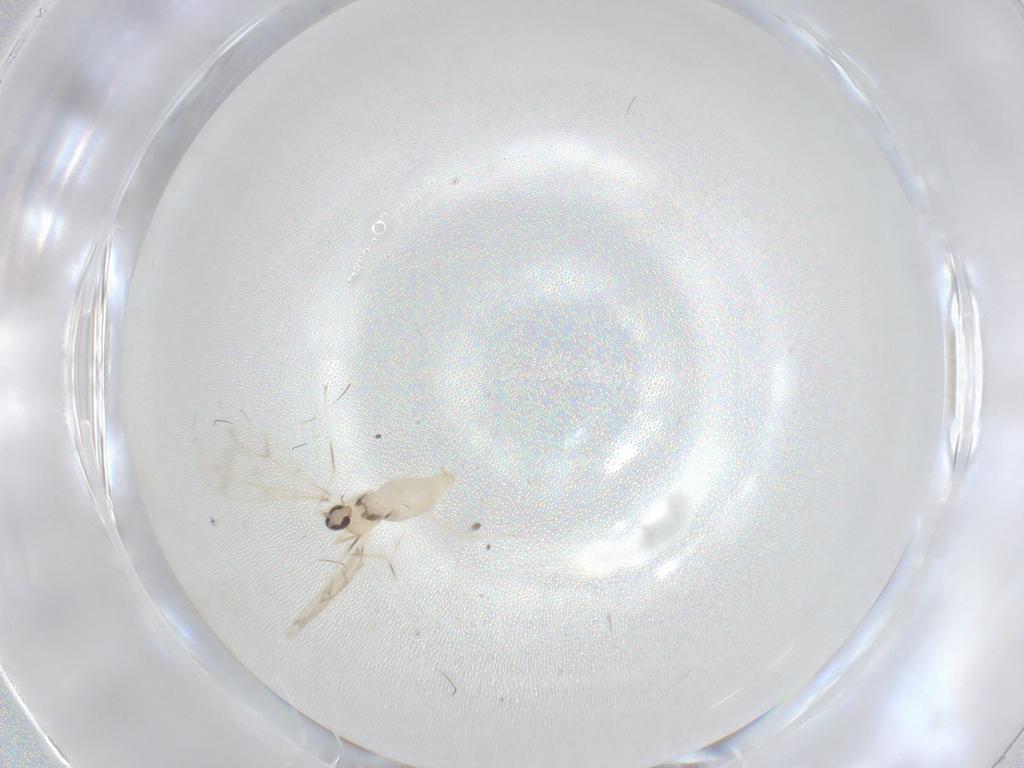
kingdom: Animalia
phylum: Arthropoda
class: Insecta
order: Diptera
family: Cecidomyiidae
